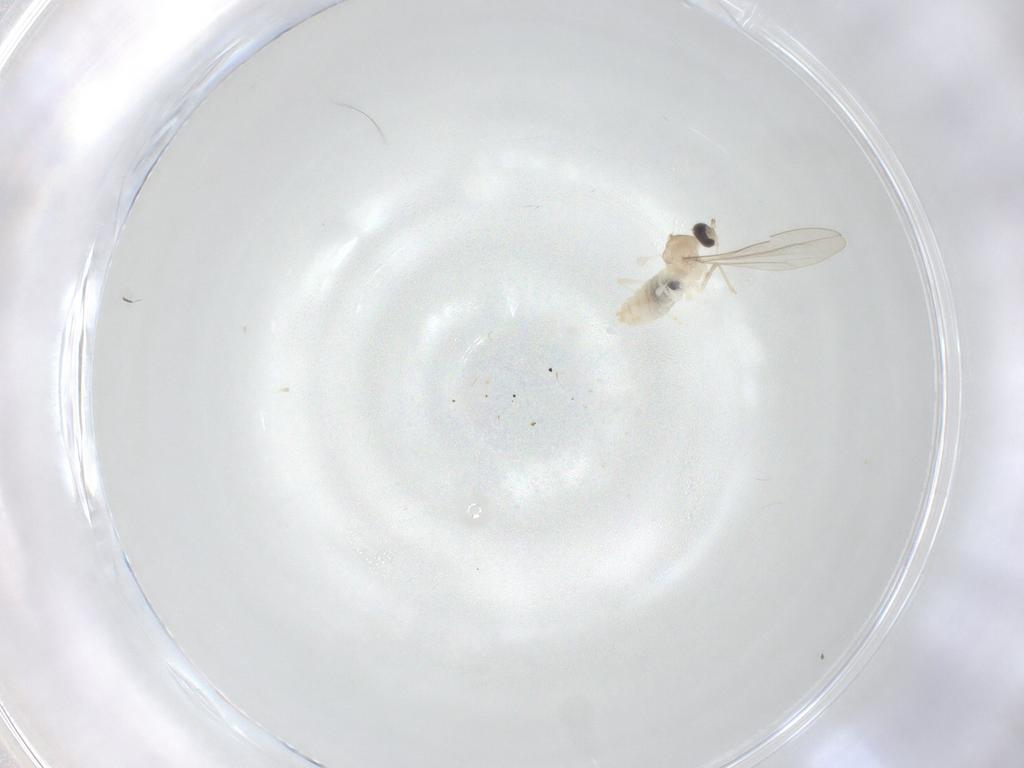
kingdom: Animalia
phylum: Arthropoda
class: Insecta
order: Diptera
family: Cecidomyiidae
